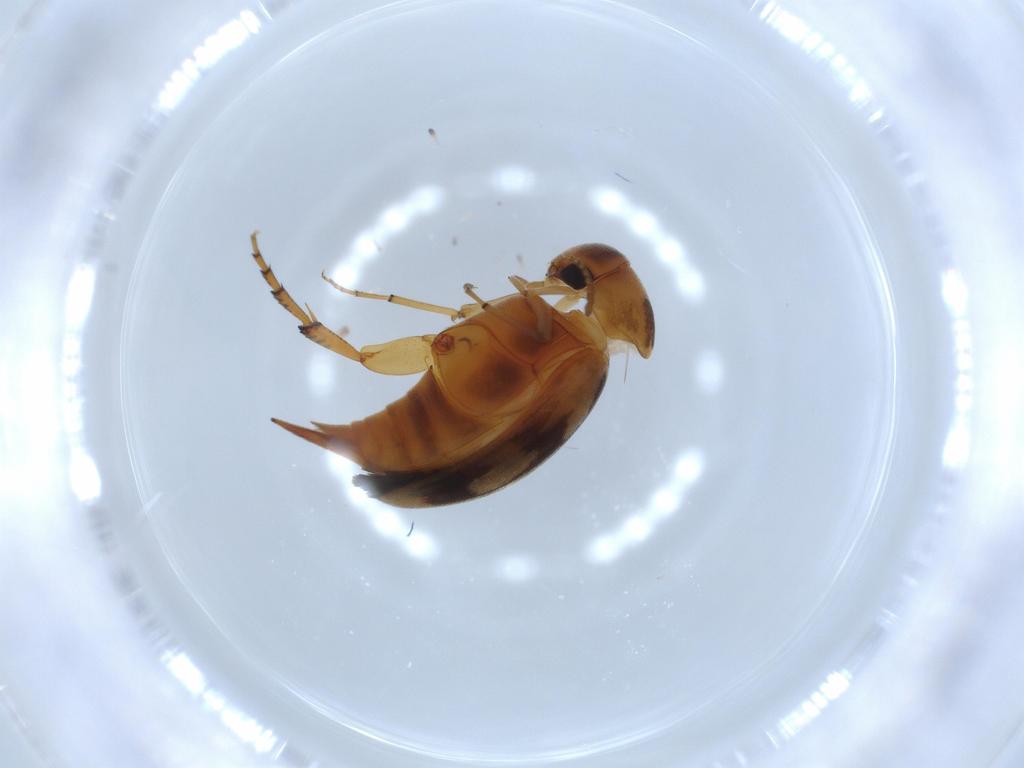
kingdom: Animalia
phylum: Arthropoda
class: Insecta
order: Coleoptera
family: Mordellidae
